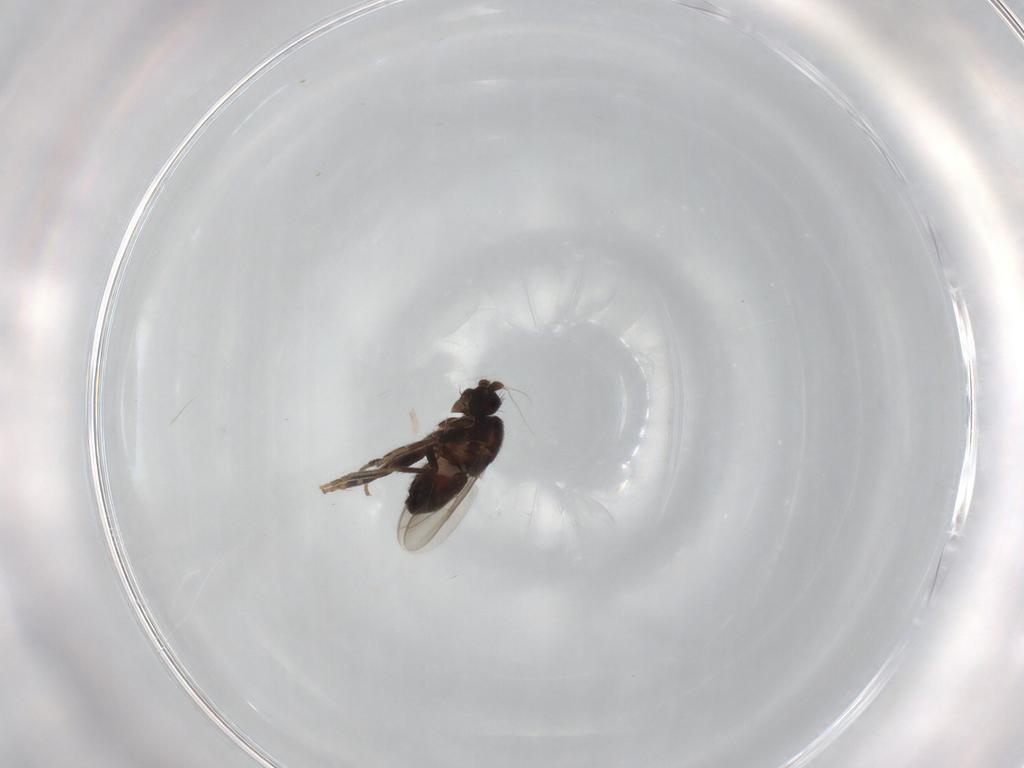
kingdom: Animalia
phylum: Arthropoda
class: Insecta
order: Diptera
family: Sphaeroceridae
